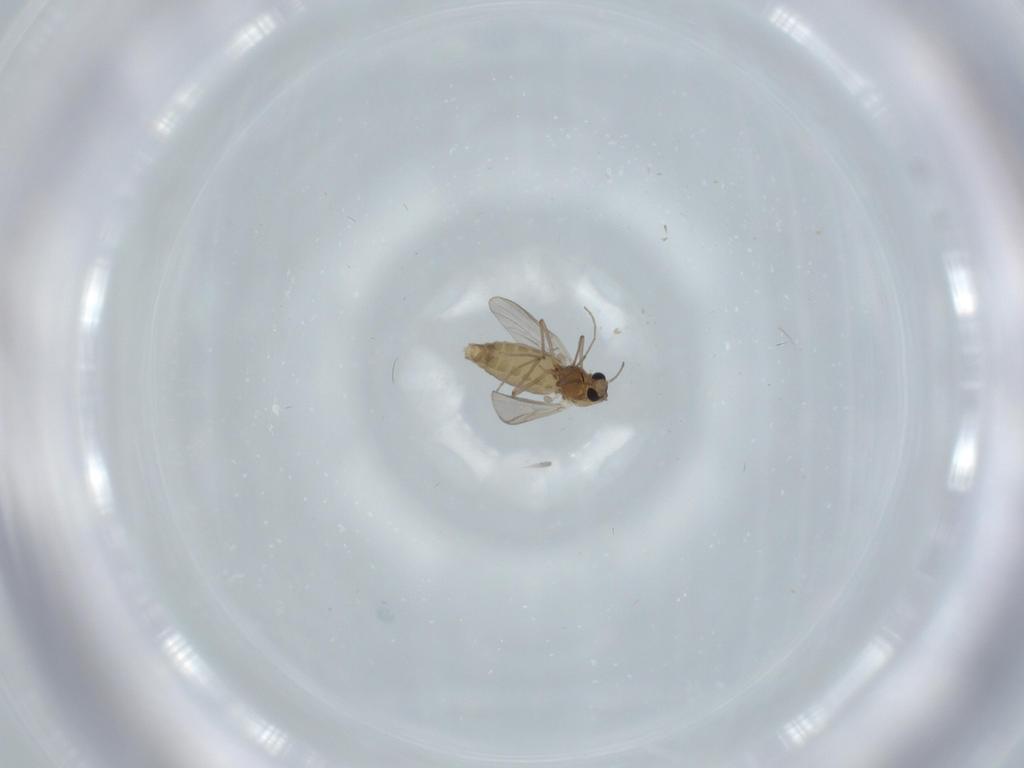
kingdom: Animalia
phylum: Arthropoda
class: Insecta
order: Diptera
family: Chironomidae
